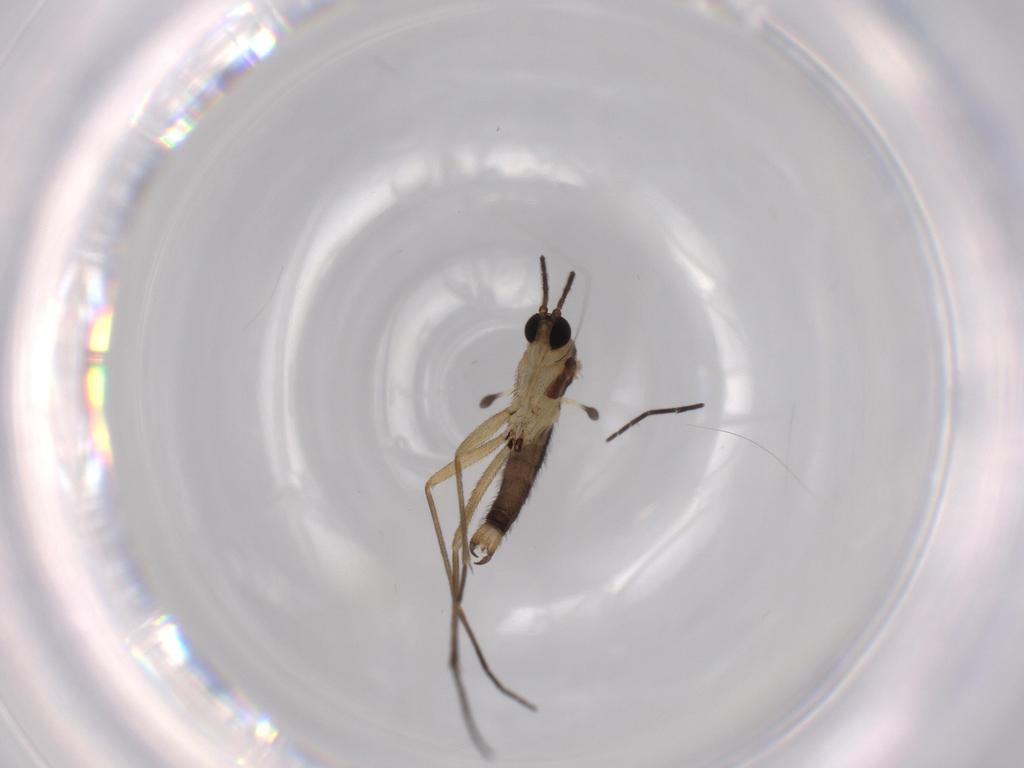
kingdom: Animalia
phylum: Arthropoda
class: Insecta
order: Diptera
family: Sciaridae
